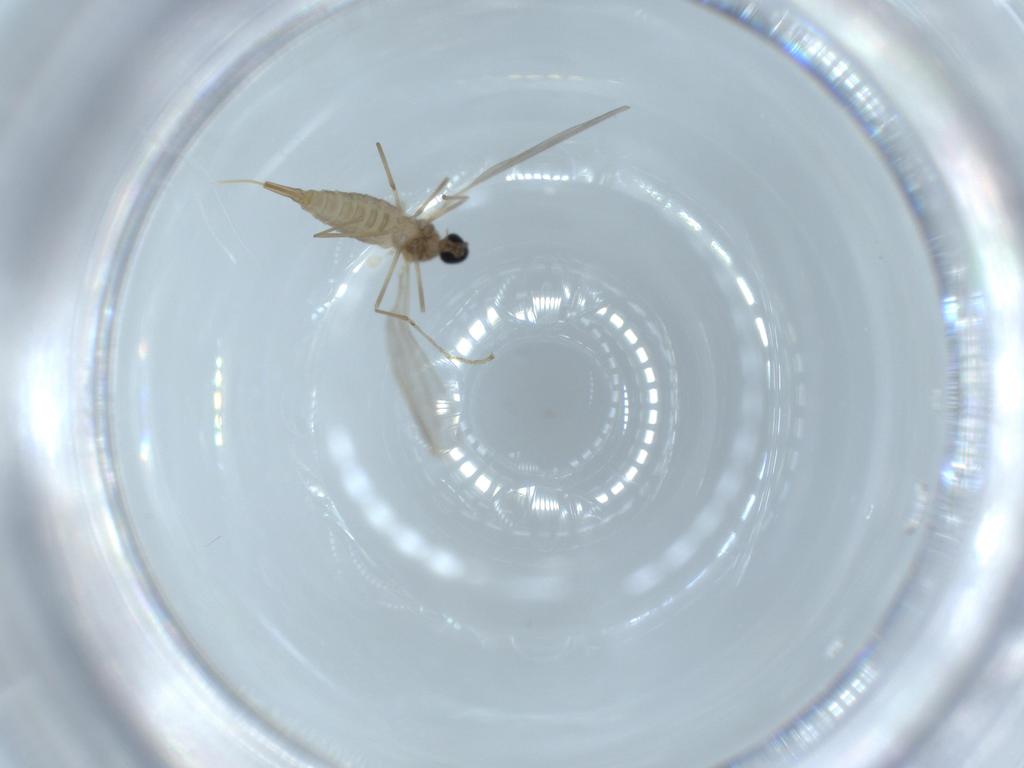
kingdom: Animalia
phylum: Arthropoda
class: Insecta
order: Diptera
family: Cecidomyiidae
